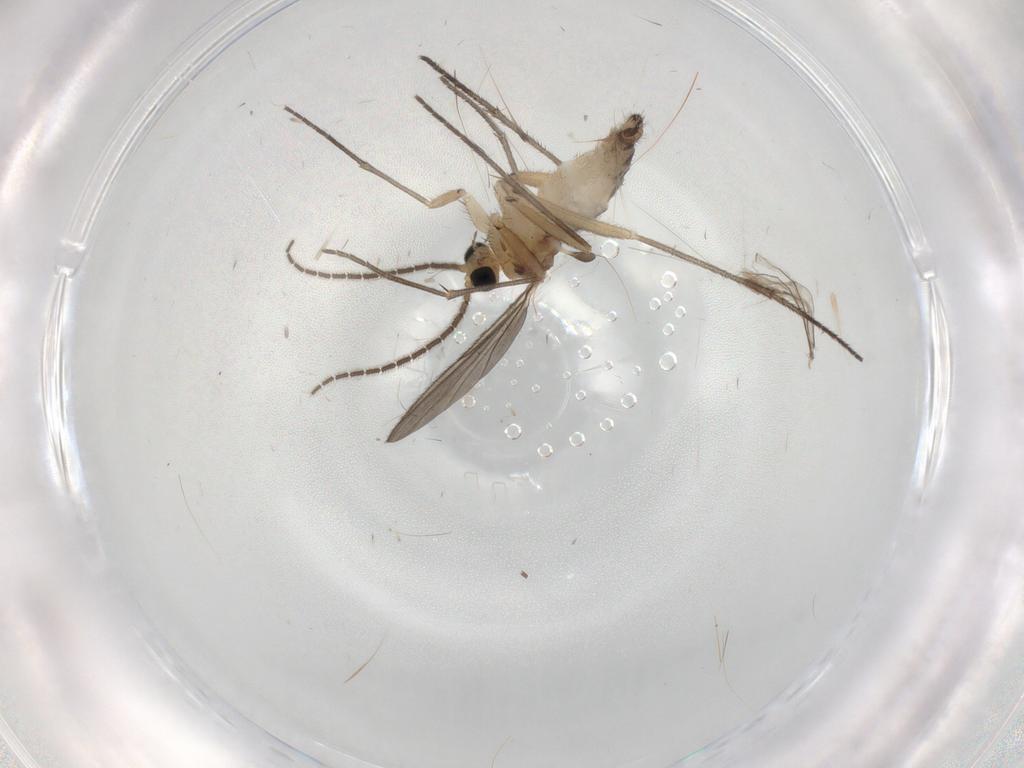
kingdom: Animalia
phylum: Arthropoda
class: Insecta
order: Diptera
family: Sciaridae
